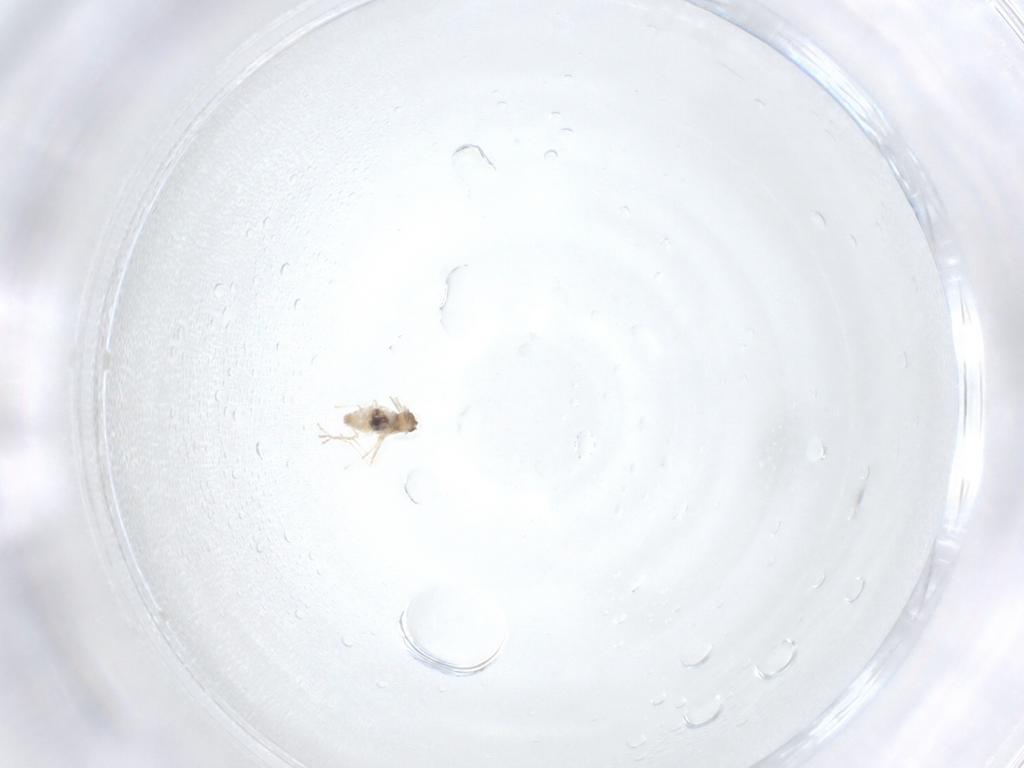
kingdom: Animalia
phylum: Arthropoda
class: Insecta
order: Diptera
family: Cecidomyiidae
